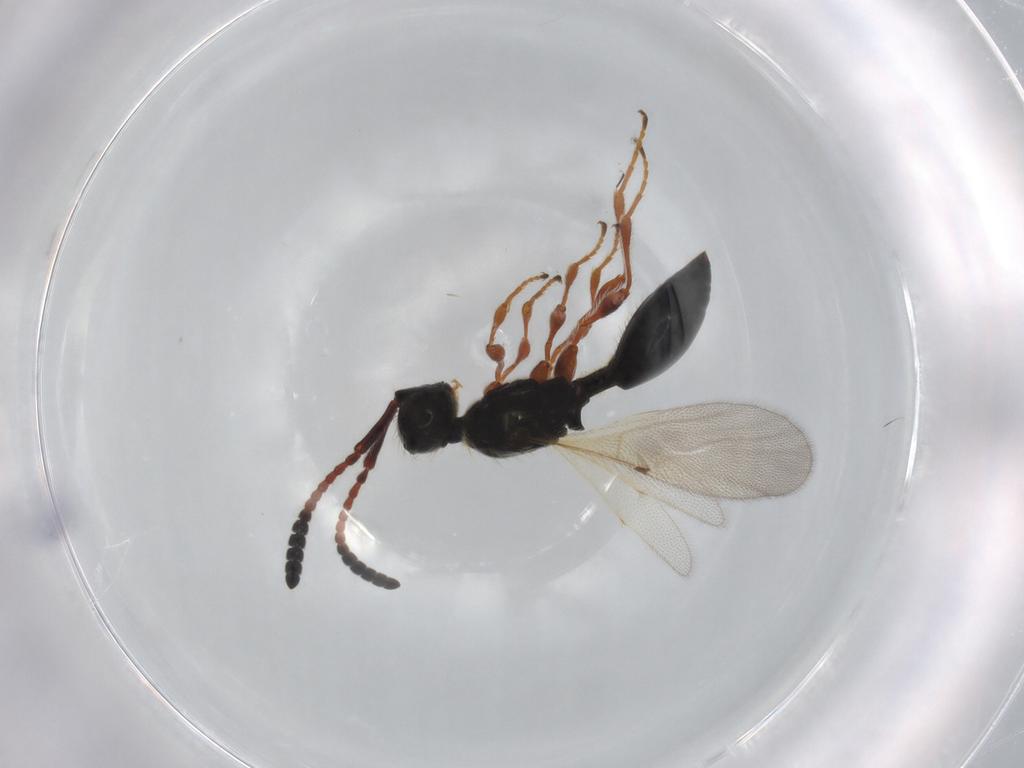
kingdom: Animalia
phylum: Arthropoda
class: Insecta
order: Hymenoptera
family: Diapriidae
